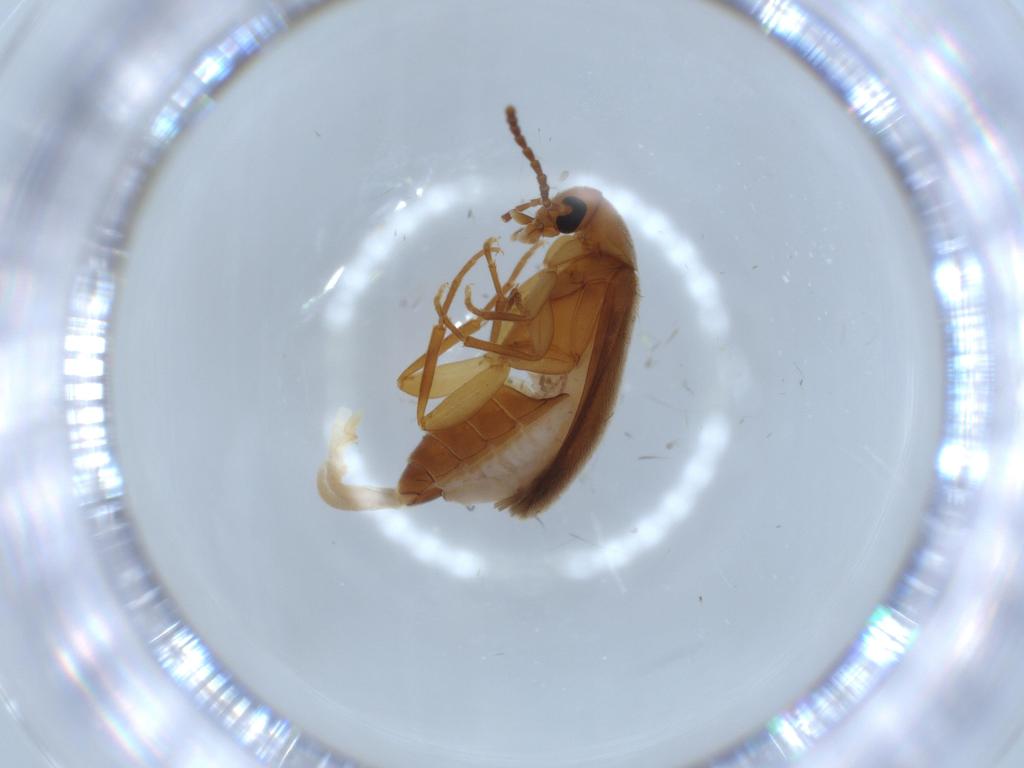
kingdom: Animalia
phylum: Arthropoda
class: Insecta
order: Coleoptera
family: Scraptiidae
